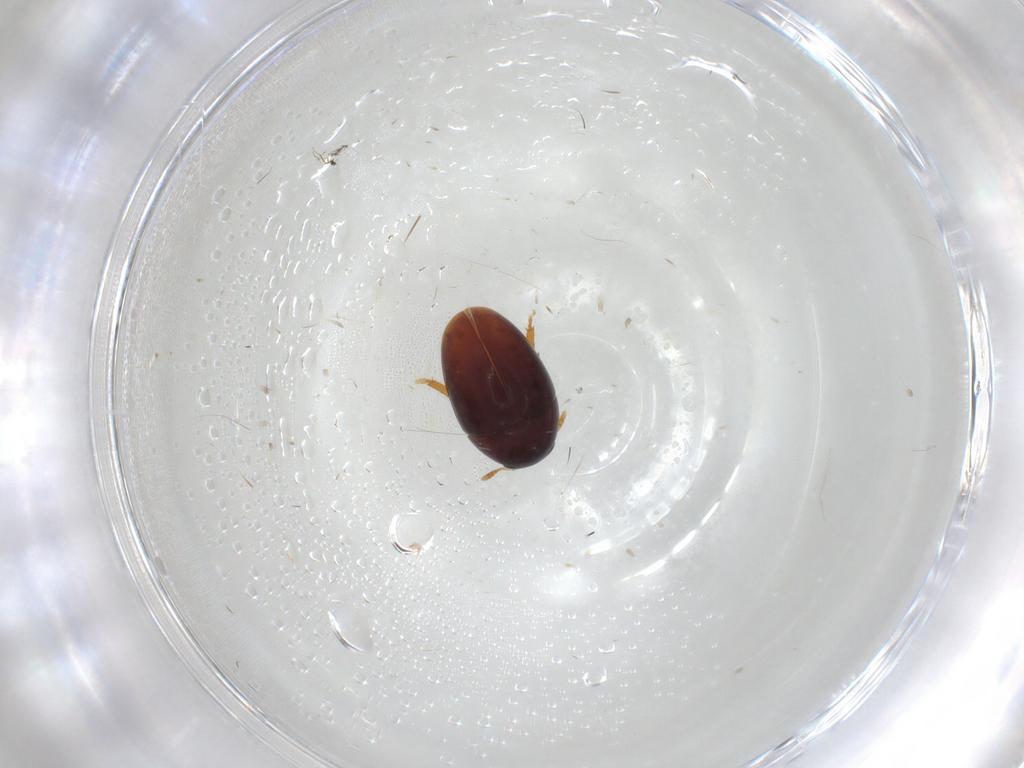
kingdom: Animalia
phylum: Arthropoda
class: Insecta
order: Coleoptera
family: Phalacridae
